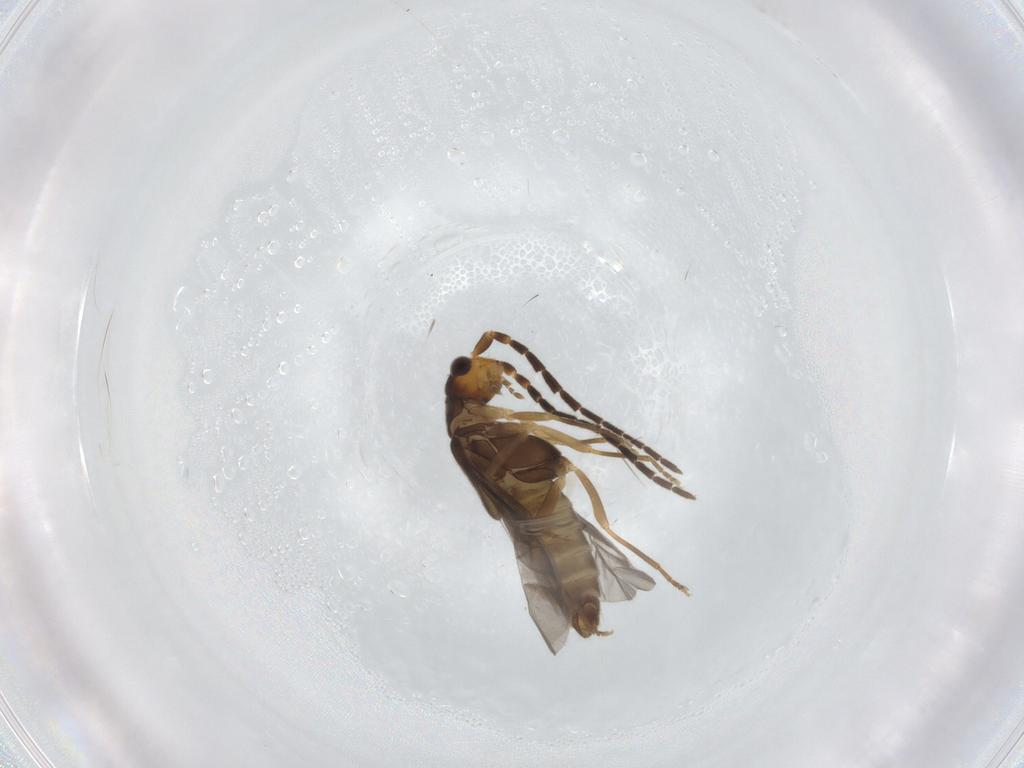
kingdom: Animalia
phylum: Arthropoda
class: Insecta
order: Coleoptera
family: Cantharidae
